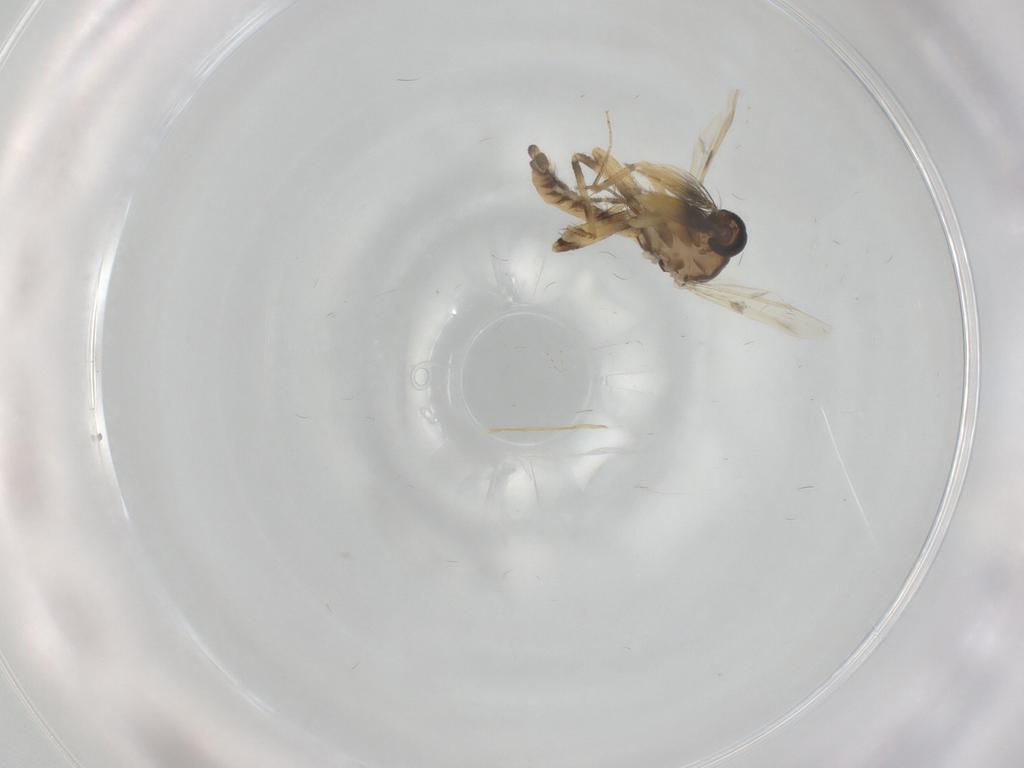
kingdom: Animalia
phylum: Arthropoda
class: Insecta
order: Diptera
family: Ceratopogonidae
